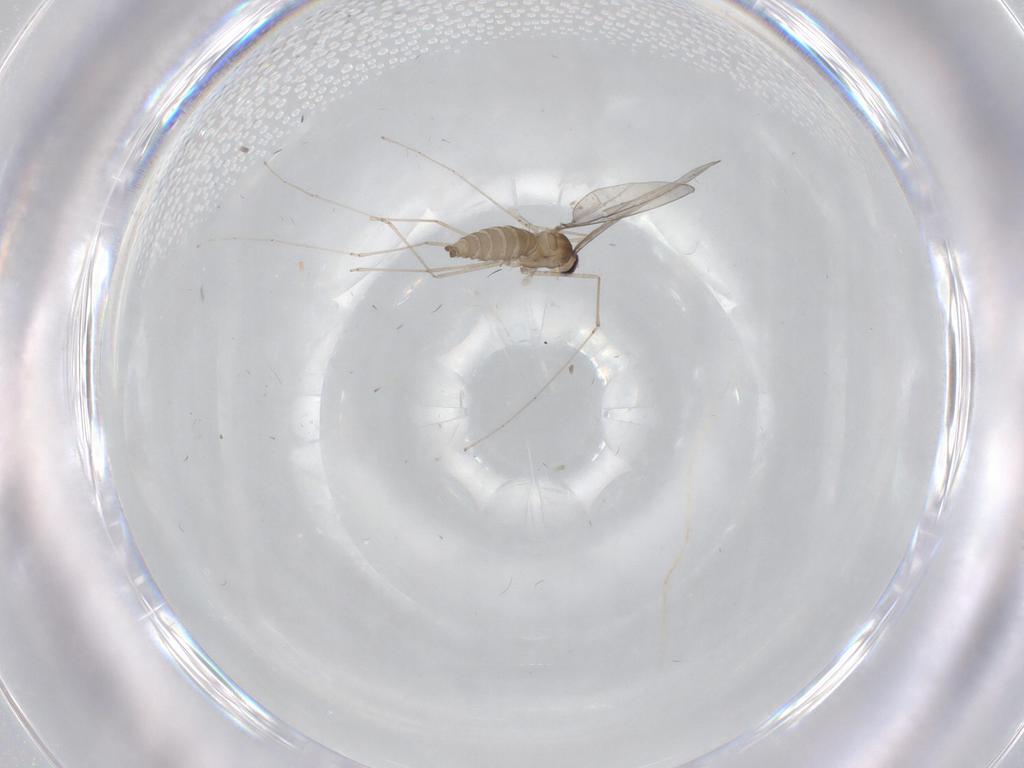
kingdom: Animalia
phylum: Arthropoda
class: Insecta
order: Diptera
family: Cecidomyiidae
